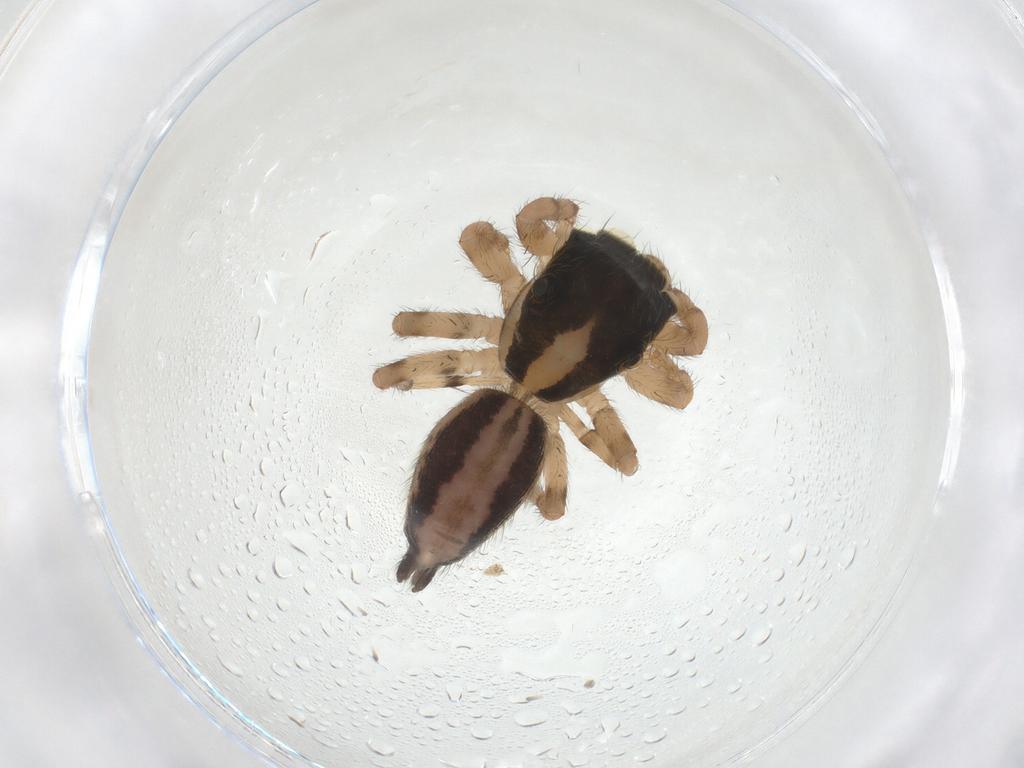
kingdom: Animalia
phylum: Arthropoda
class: Arachnida
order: Araneae
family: Salticidae
